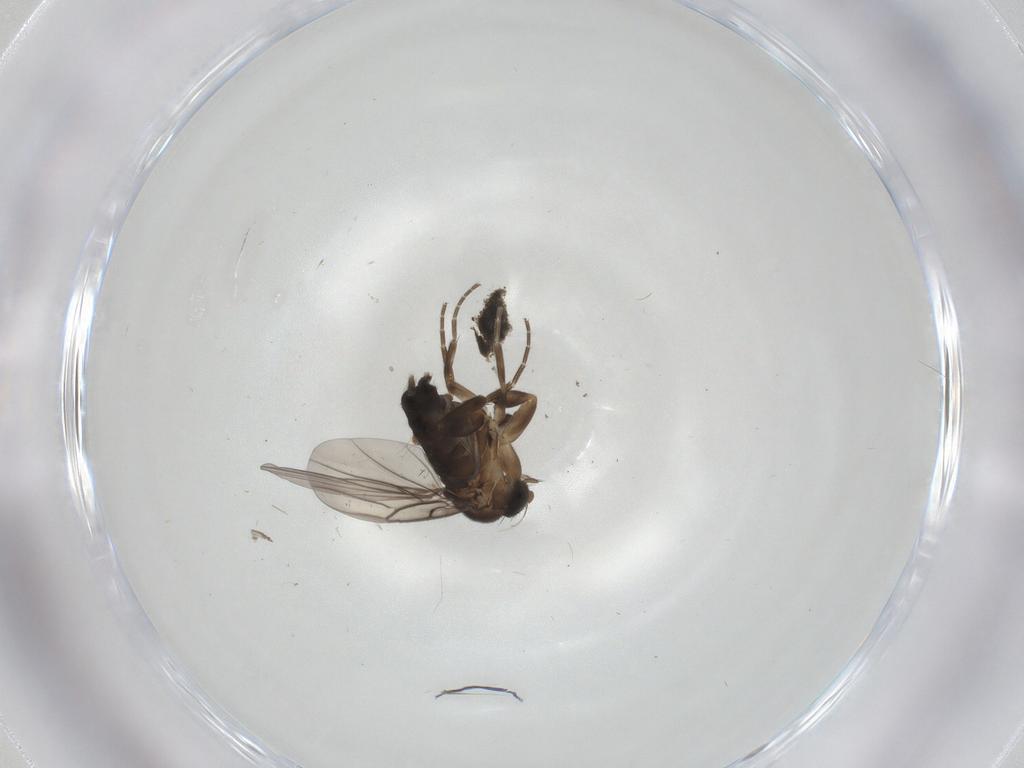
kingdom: Animalia
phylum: Arthropoda
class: Insecta
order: Diptera
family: Phoridae
